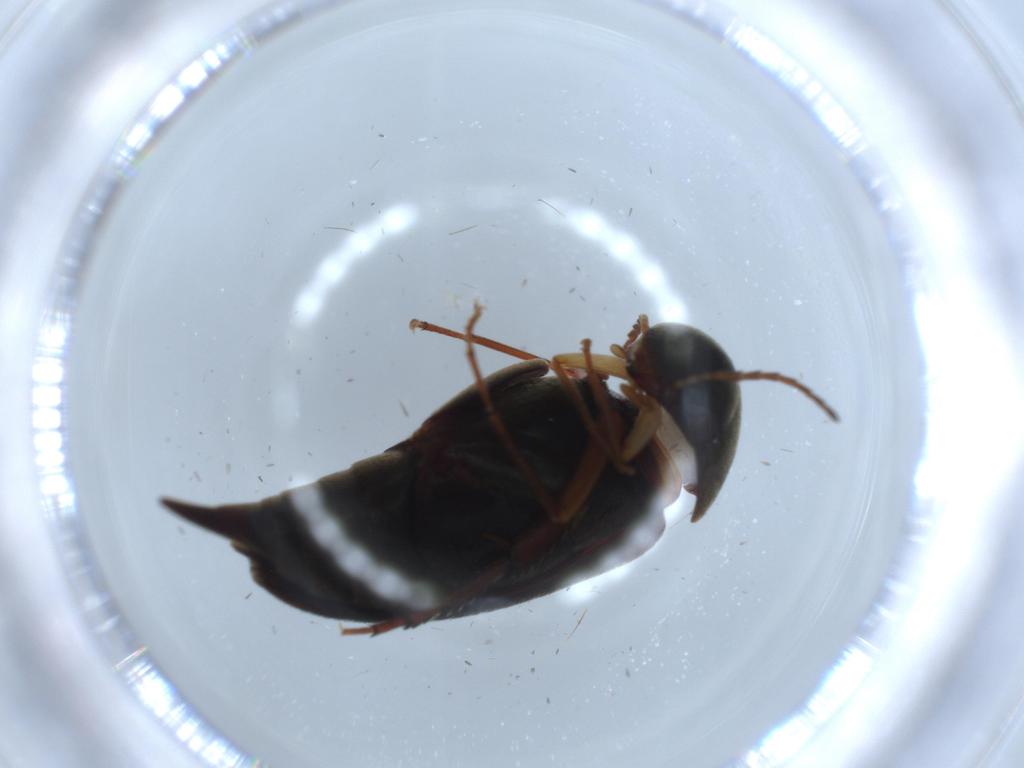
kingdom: Animalia
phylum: Arthropoda
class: Insecta
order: Coleoptera
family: Mordellidae
